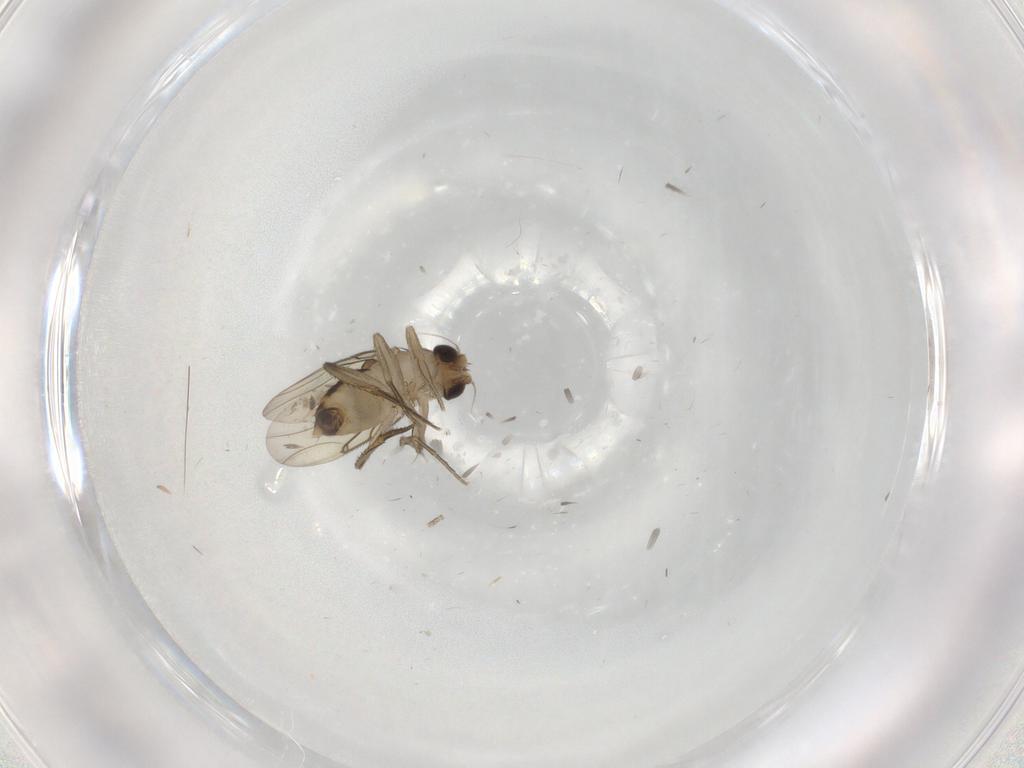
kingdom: Animalia
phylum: Arthropoda
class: Insecta
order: Diptera
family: Phoridae
